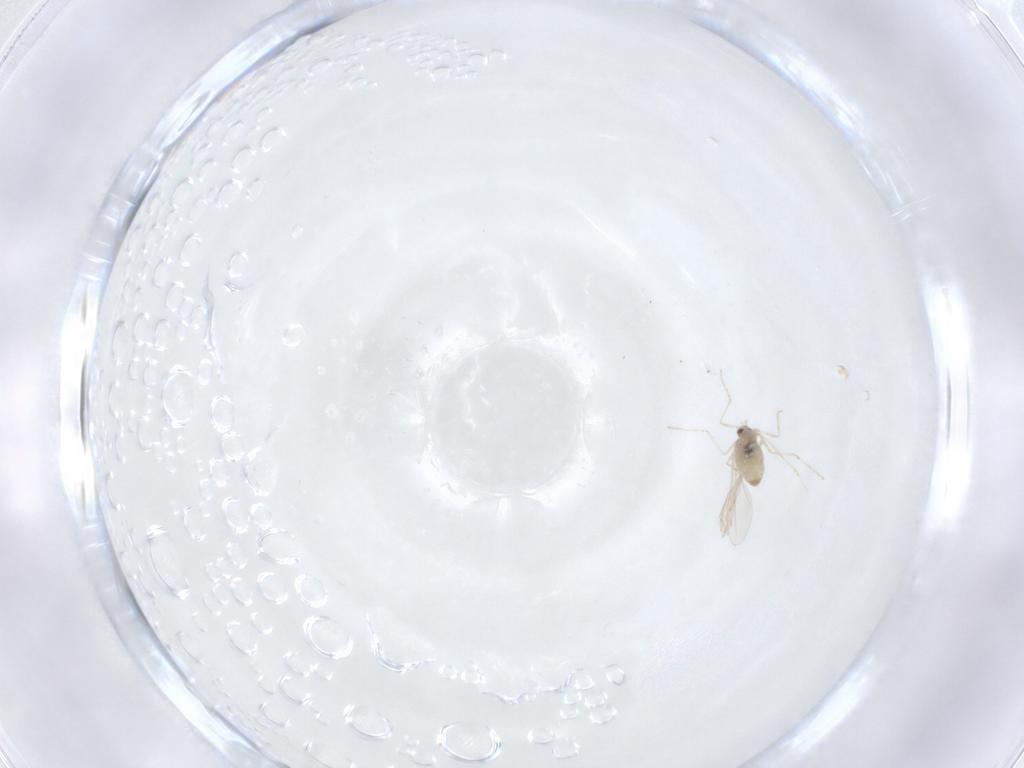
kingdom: Animalia
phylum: Arthropoda
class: Insecta
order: Diptera
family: Cecidomyiidae
